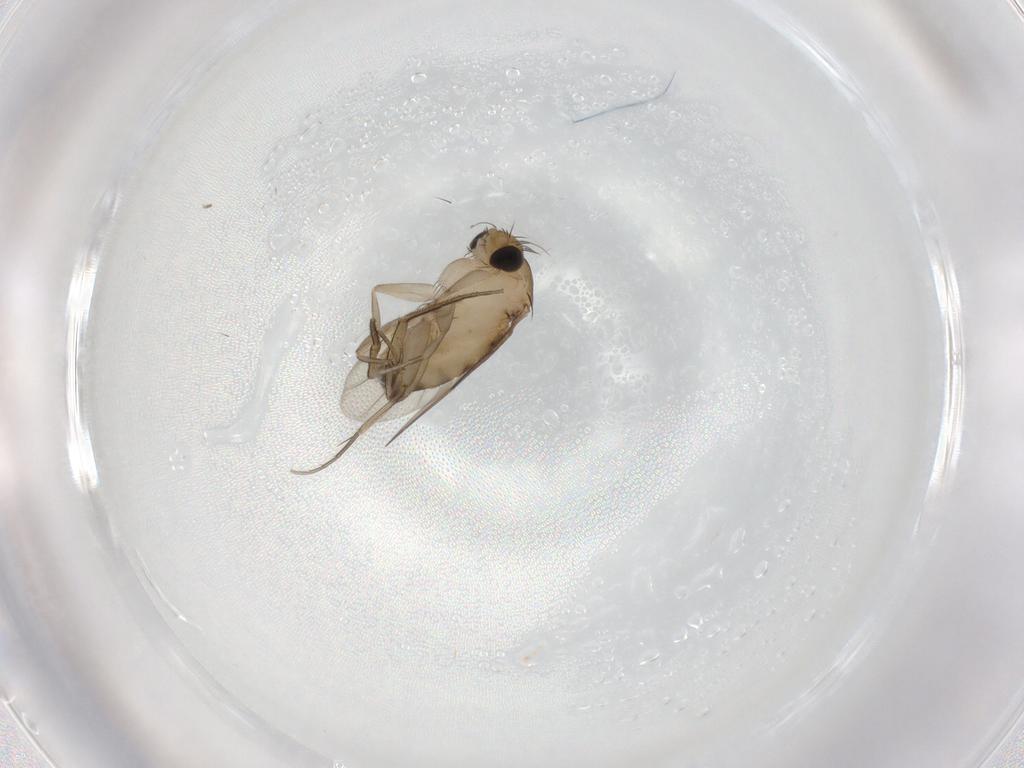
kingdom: Animalia
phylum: Arthropoda
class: Insecta
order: Diptera
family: Phoridae
